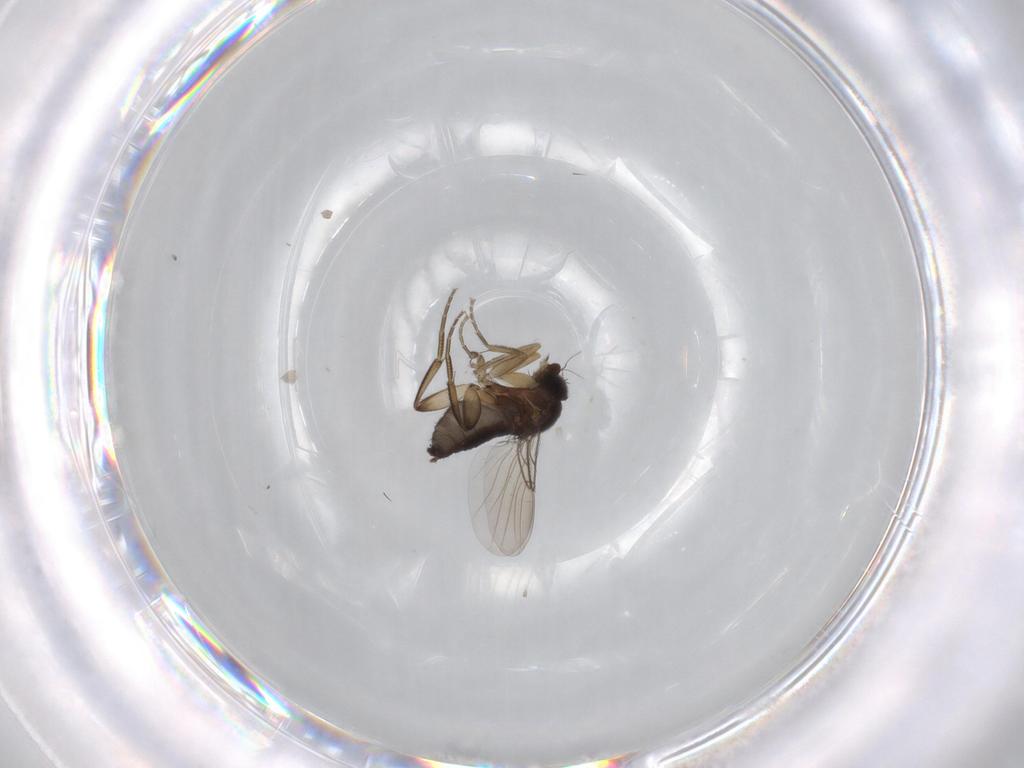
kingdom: Animalia
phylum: Arthropoda
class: Insecta
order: Diptera
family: Phoridae
